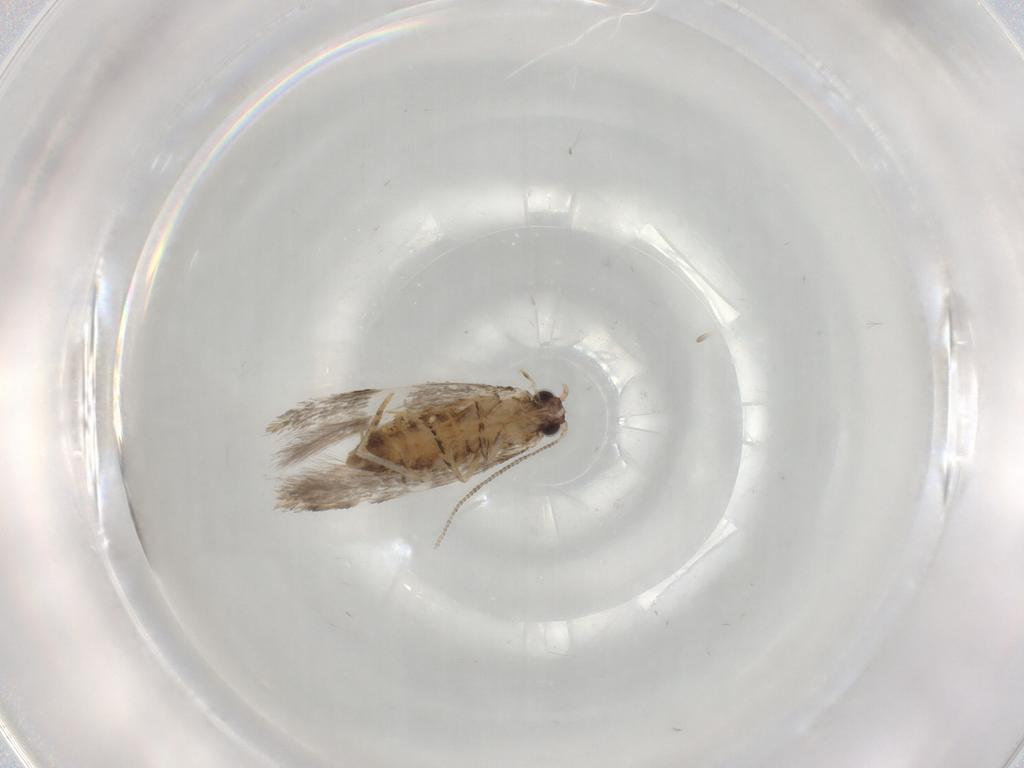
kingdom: Animalia
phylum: Arthropoda
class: Insecta
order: Lepidoptera
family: Tineidae
